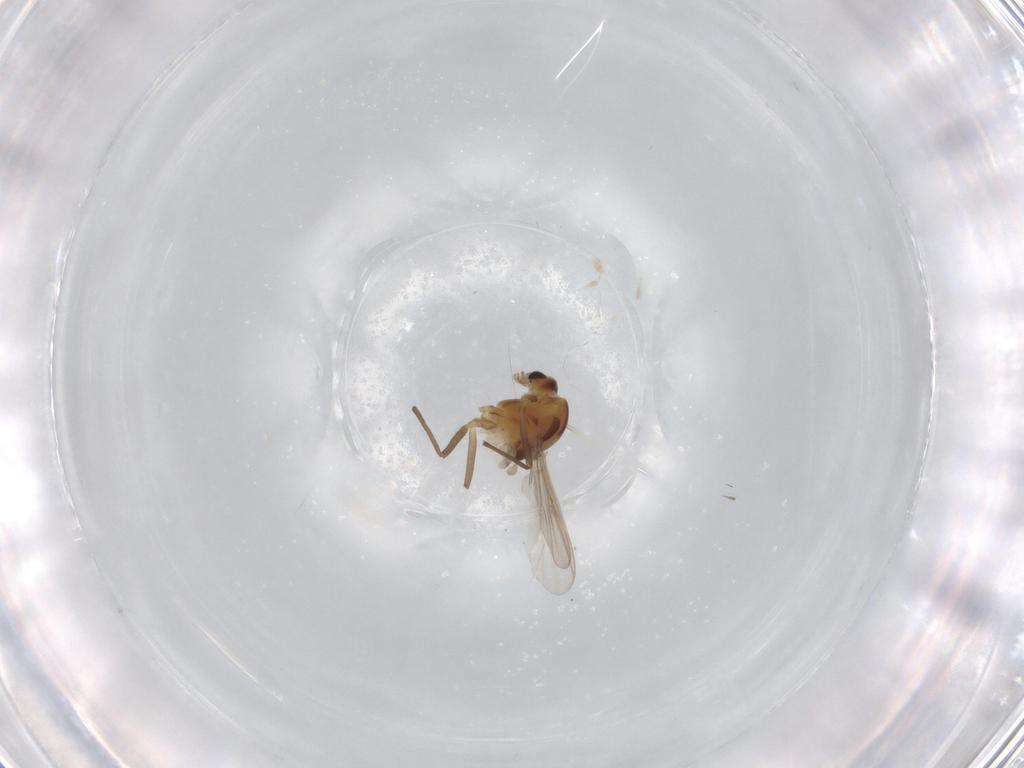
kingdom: Animalia
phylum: Arthropoda
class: Insecta
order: Diptera
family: Chironomidae
